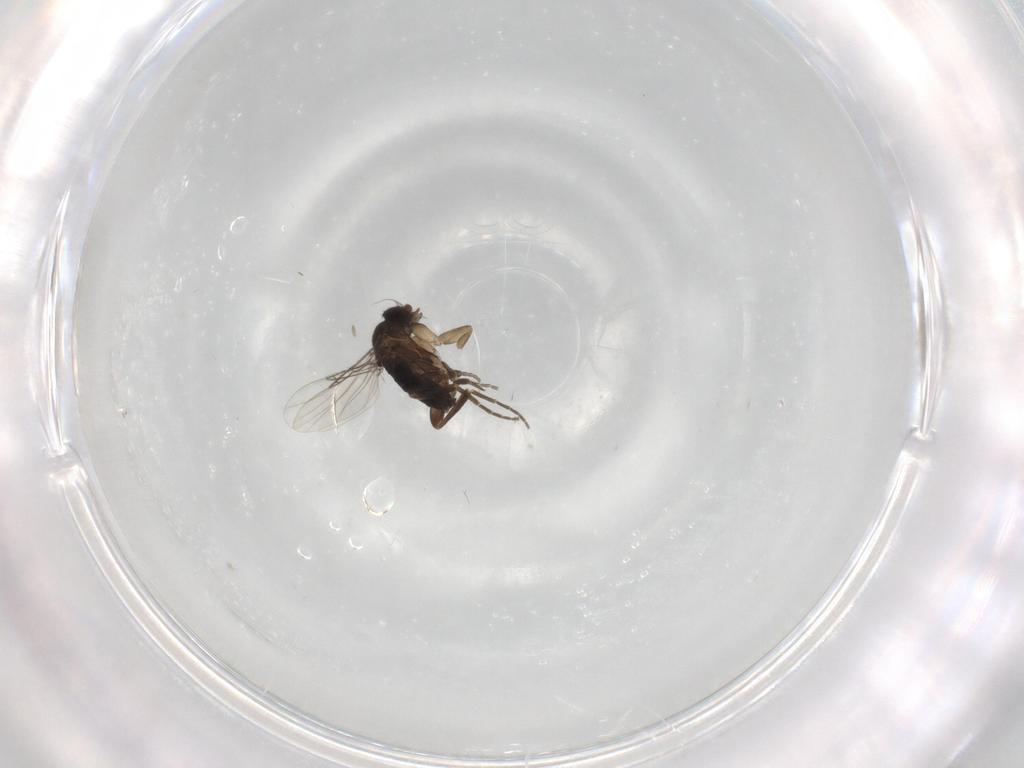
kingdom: Animalia
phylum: Arthropoda
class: Insecta
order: Diptera
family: Phoridae
